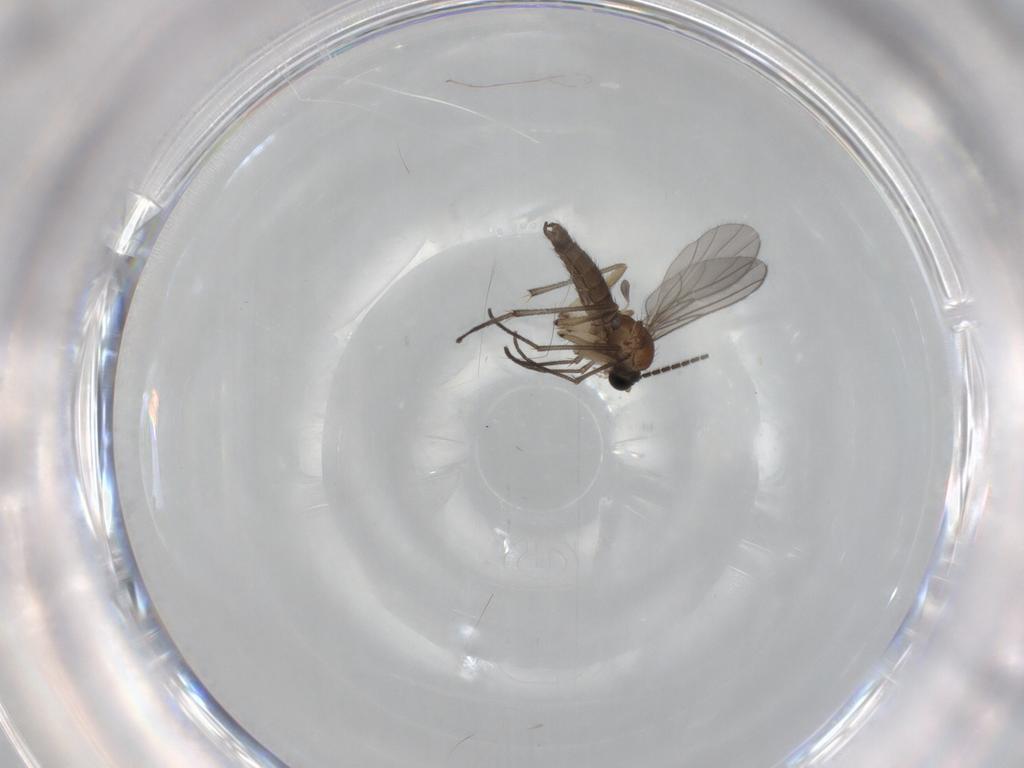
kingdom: Animalia
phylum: Arthropoda
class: Insecta
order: Diptera
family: Sciaridae
